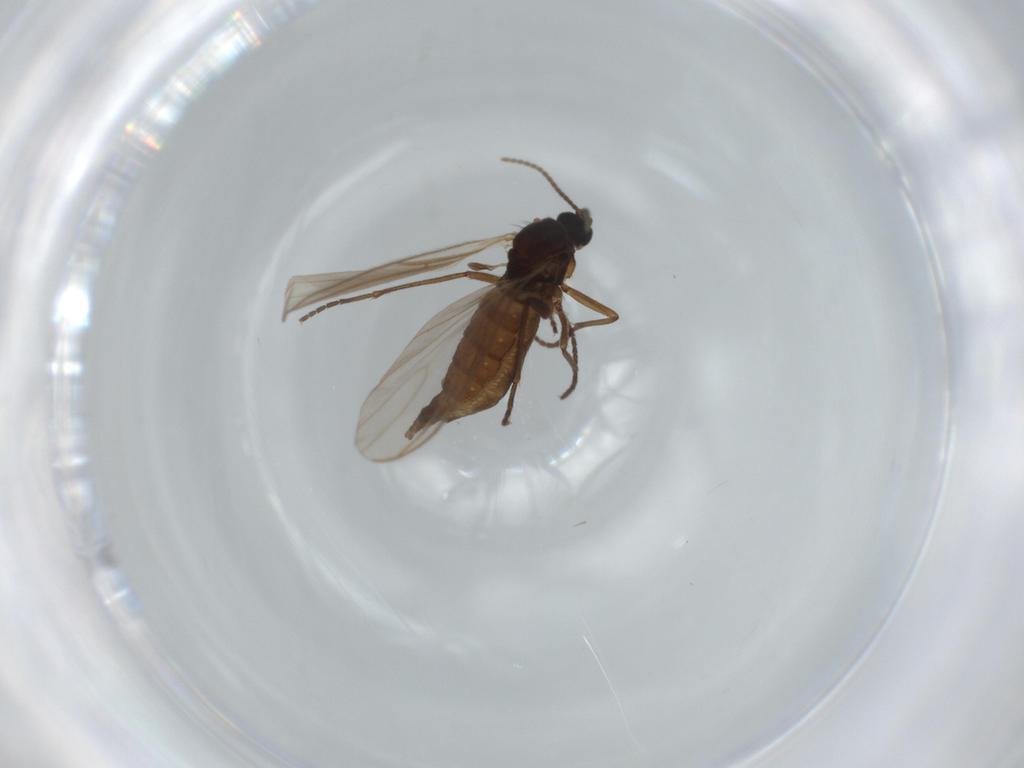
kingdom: Animalia
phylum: Arthropoda
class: Insecta
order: Diptera
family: Sciaridae
